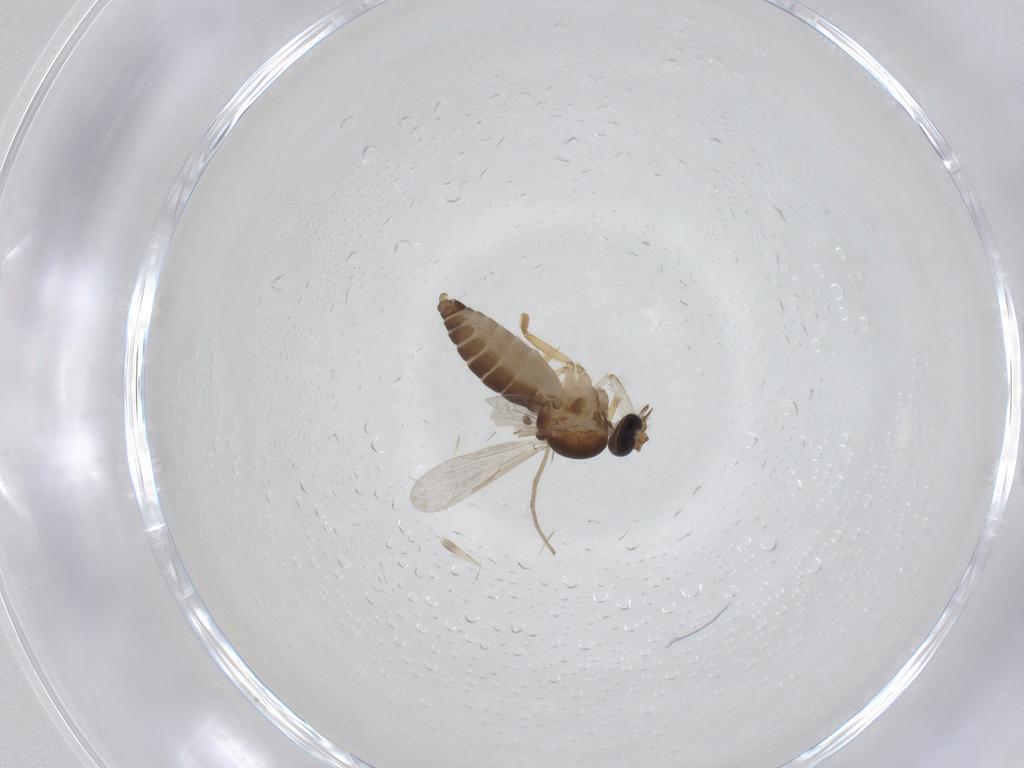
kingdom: Animalia
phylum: Arthropoda
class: Insecta
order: Diptera
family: Ceratopogonidae
